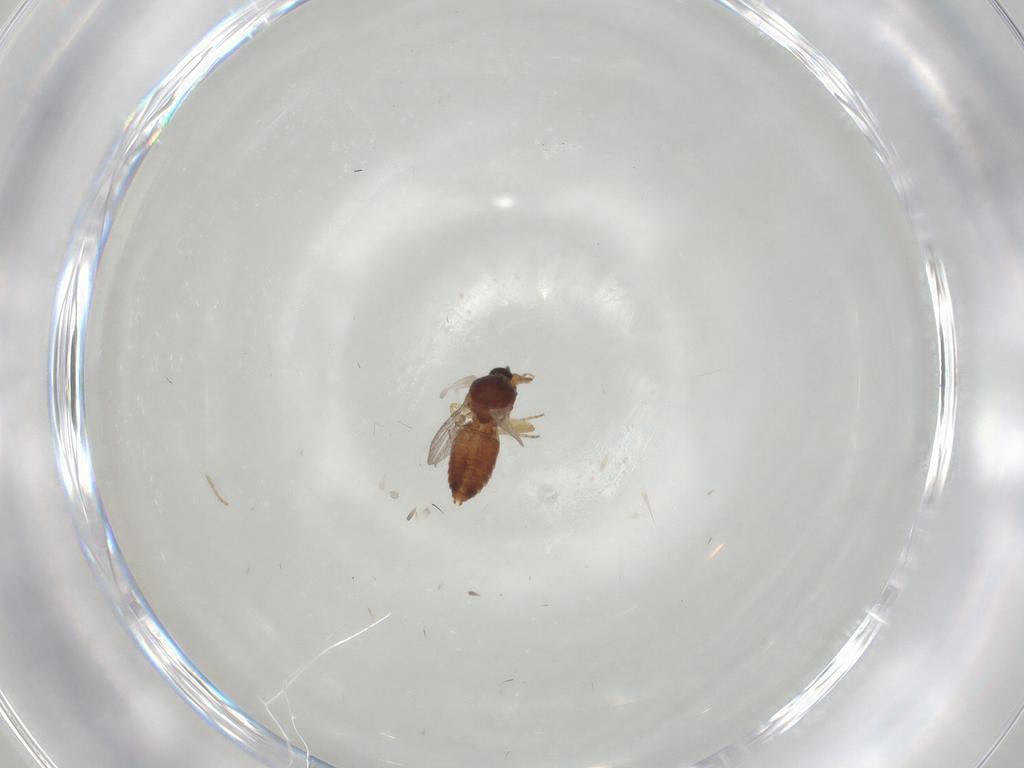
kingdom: Animalia
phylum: Arthropoda
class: Insecta
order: Diptera
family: Ceratopogonidae
